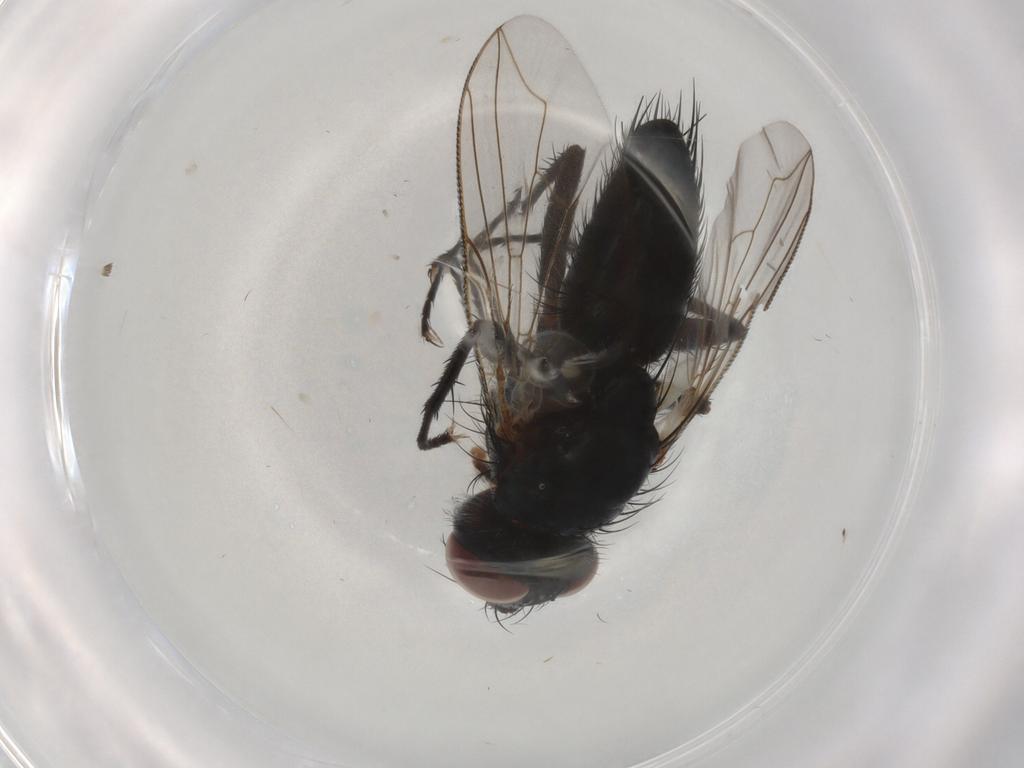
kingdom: Animalia
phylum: Arthropoda
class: Insecta
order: Diptera
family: Tachinidae
